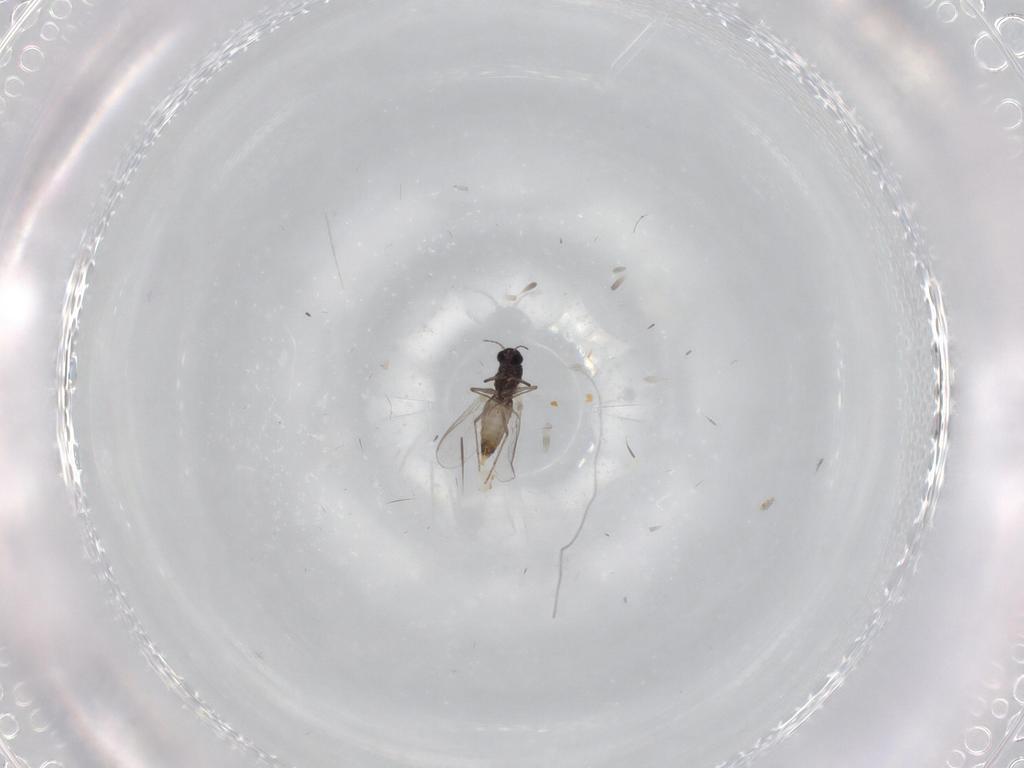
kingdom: Animalia
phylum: Arthropoda
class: Insecta
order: Diptera
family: Chironomidae
